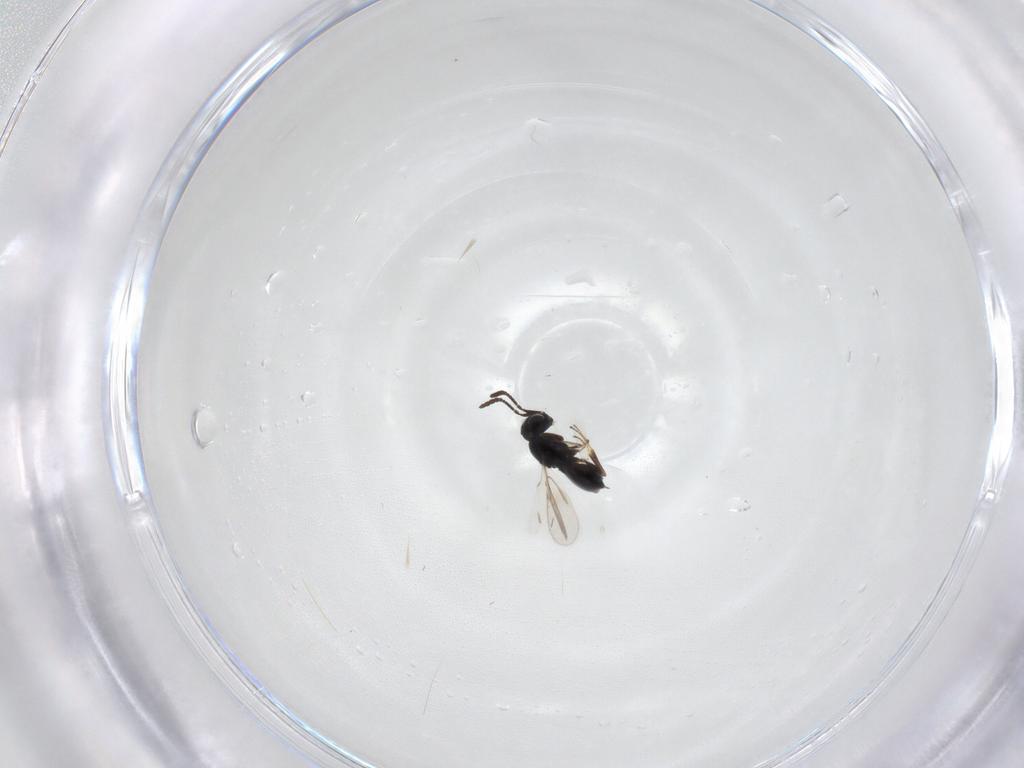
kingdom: Animalia
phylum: Arthropoda
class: Insecta
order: Hymenoptera
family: Scelionidae
